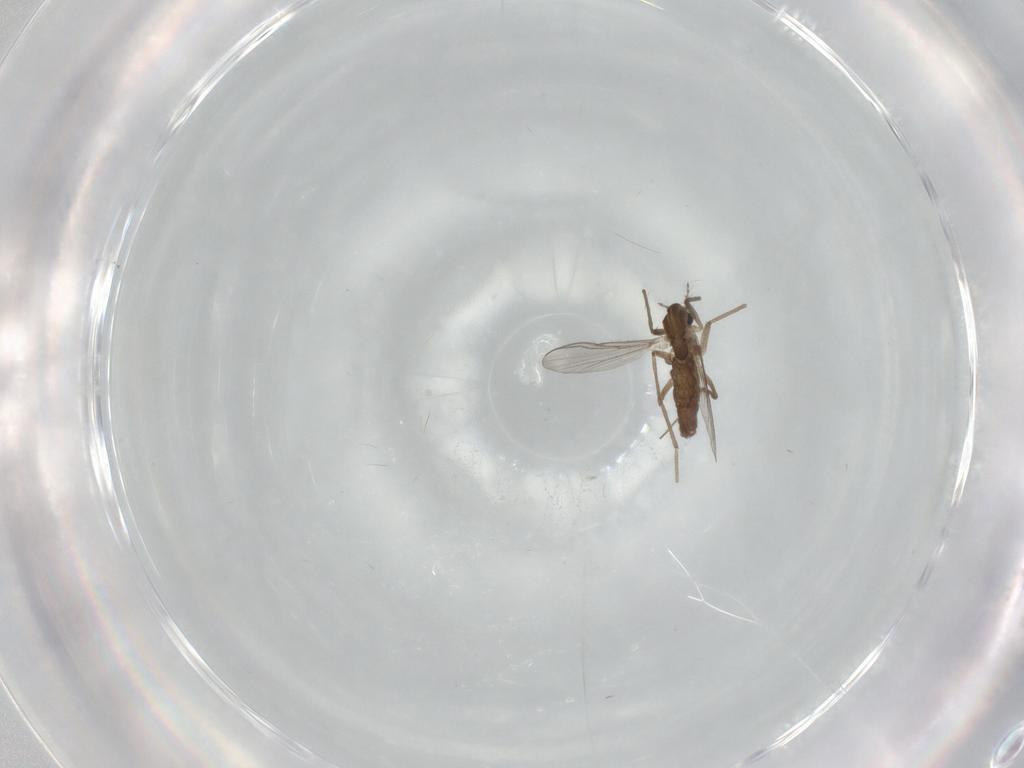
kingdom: Animalia
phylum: Arthropoda
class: Insecta
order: Diptera
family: Chironomidae
